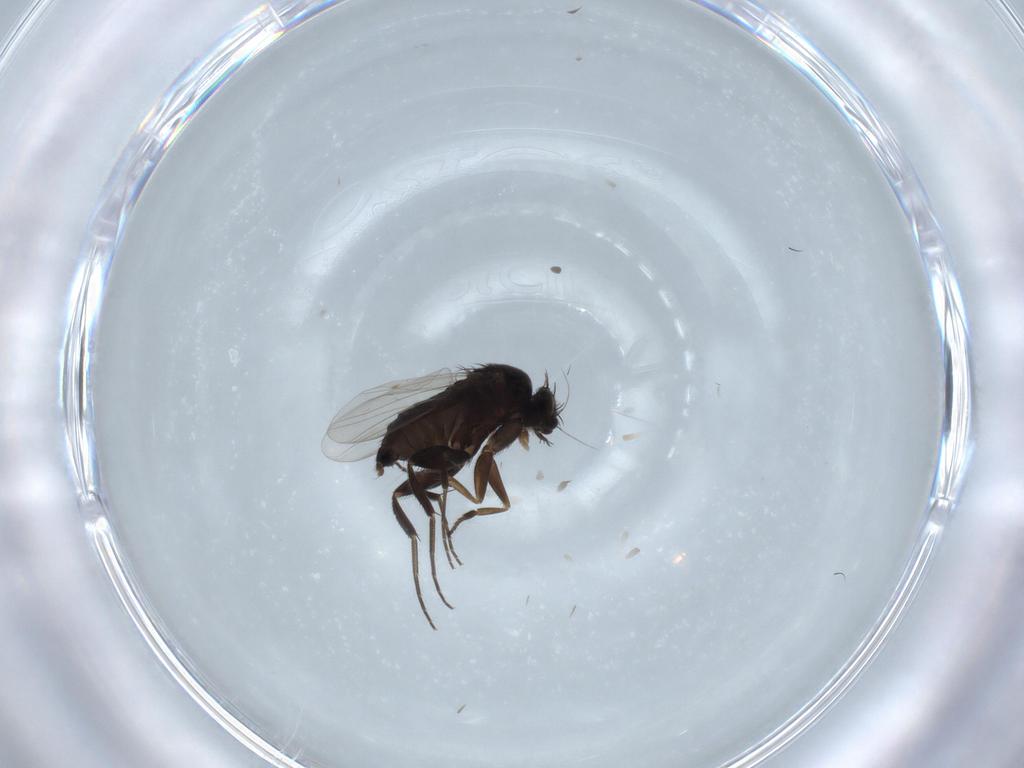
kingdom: Animalia
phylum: Arthropoda
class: Insecta
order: Diptera
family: Phoridae
